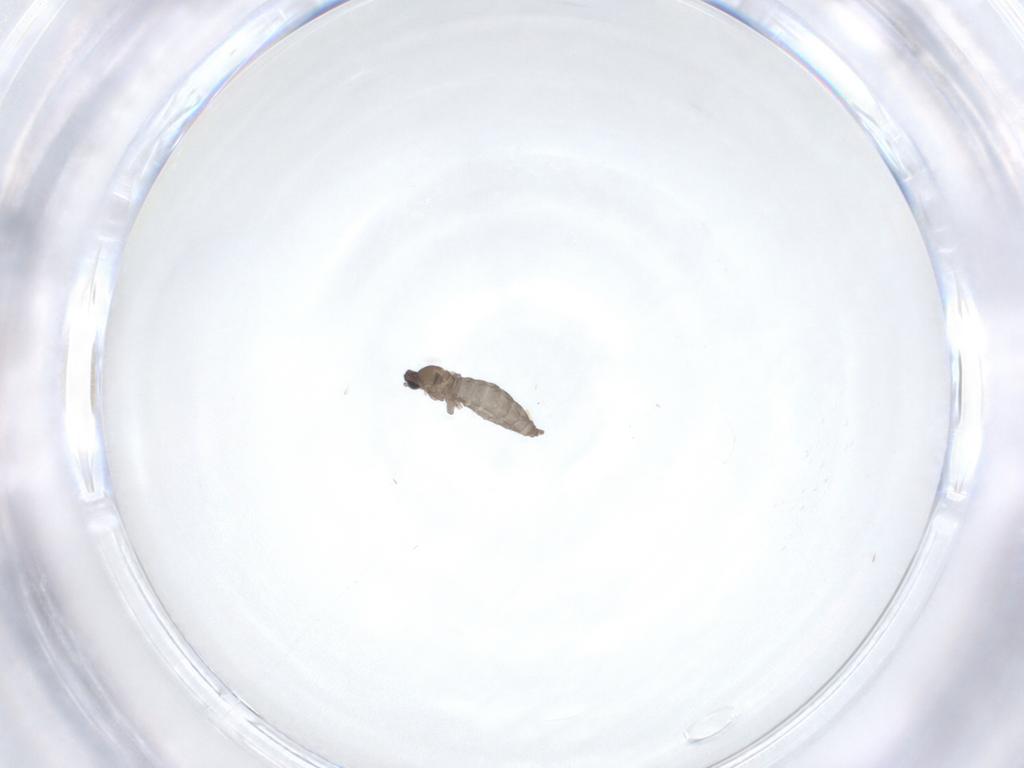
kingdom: Animalia
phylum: Arthropoda
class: Insecta
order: Diptera
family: Cecidomyiidae
